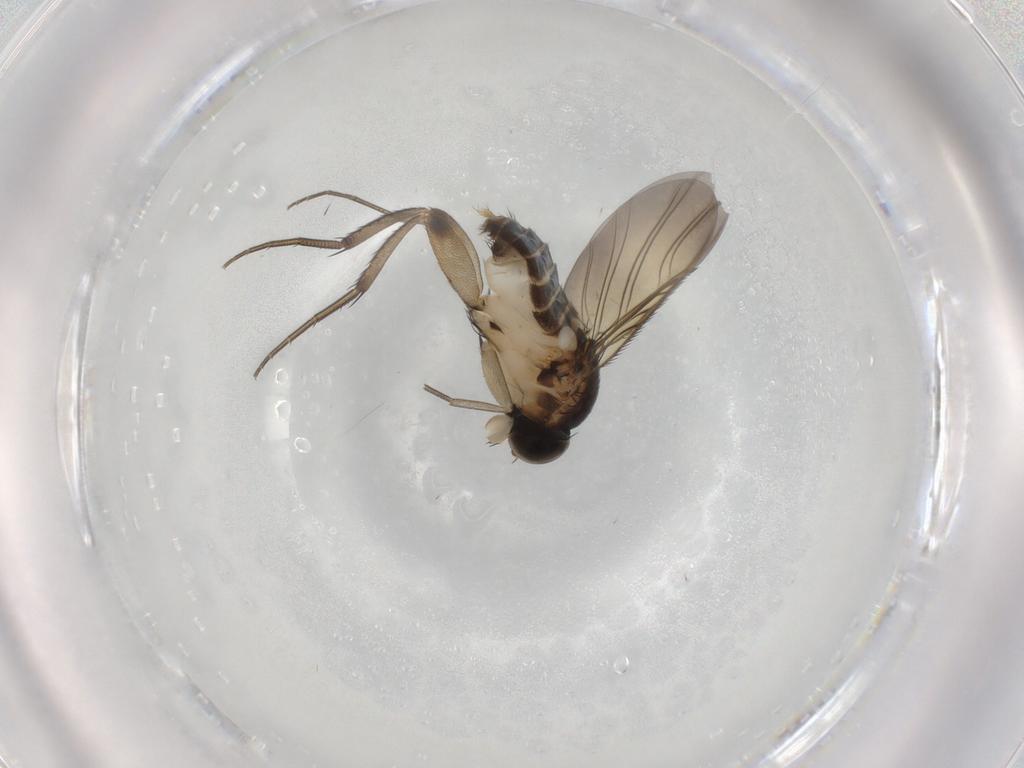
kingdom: Animalia
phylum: Arthropoda
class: Insecta
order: Diptera
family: Phoridae
